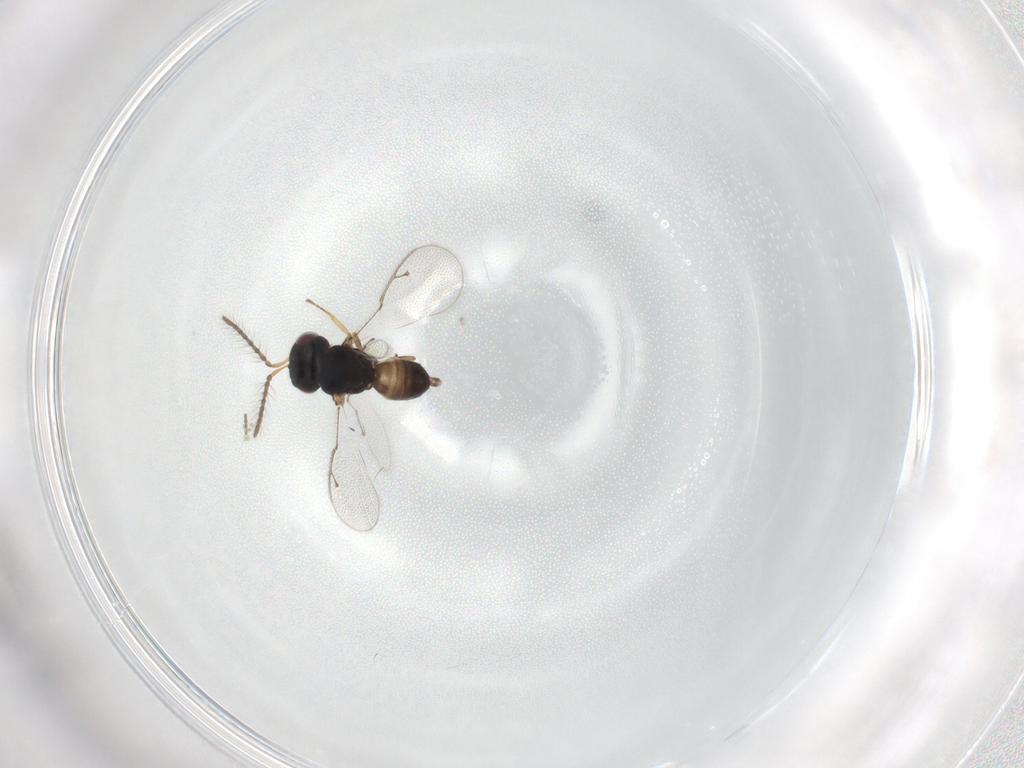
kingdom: Animalia
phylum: Arthropoda
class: Insecta
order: Hymenoptera
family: Pteromalidae
